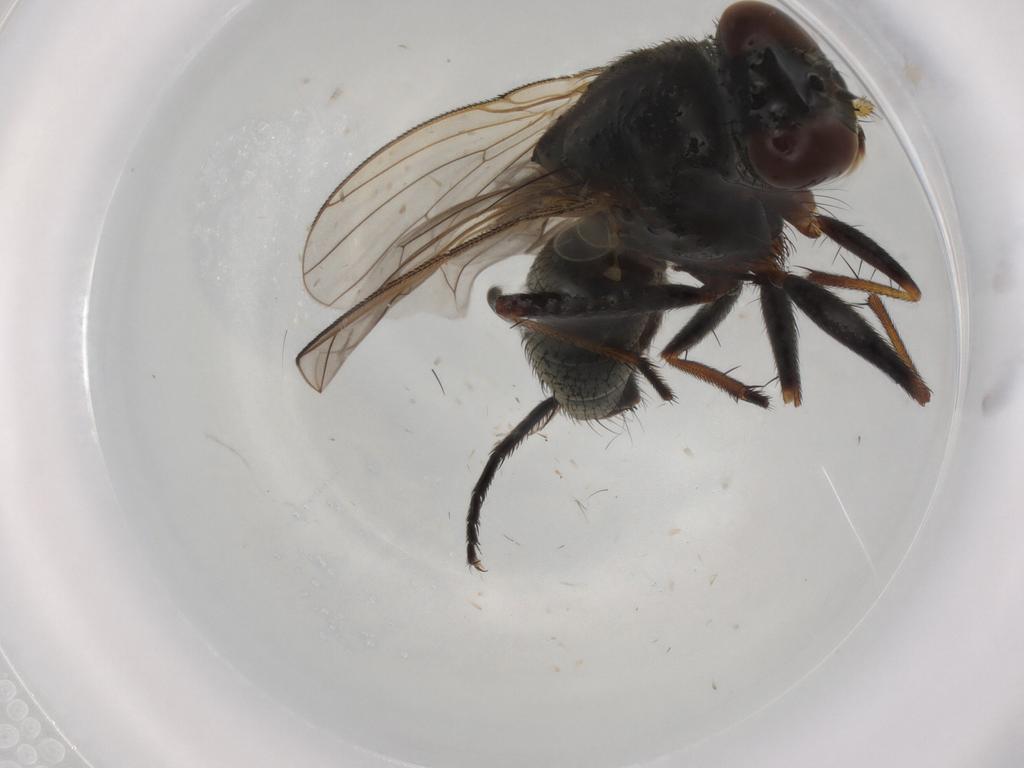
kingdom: Animalia
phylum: Arthropoda
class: Insecta
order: Diptera
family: Muscidae
